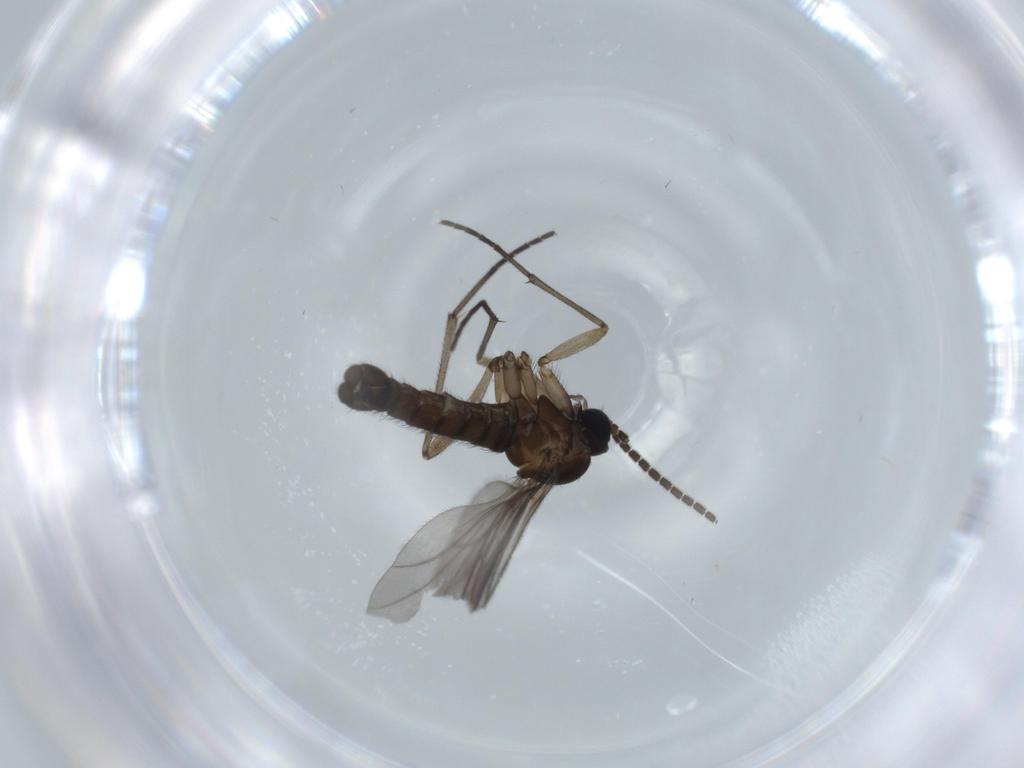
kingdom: Animalia
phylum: Arthropoda
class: Insecta
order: Diptera
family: Sciaridae
